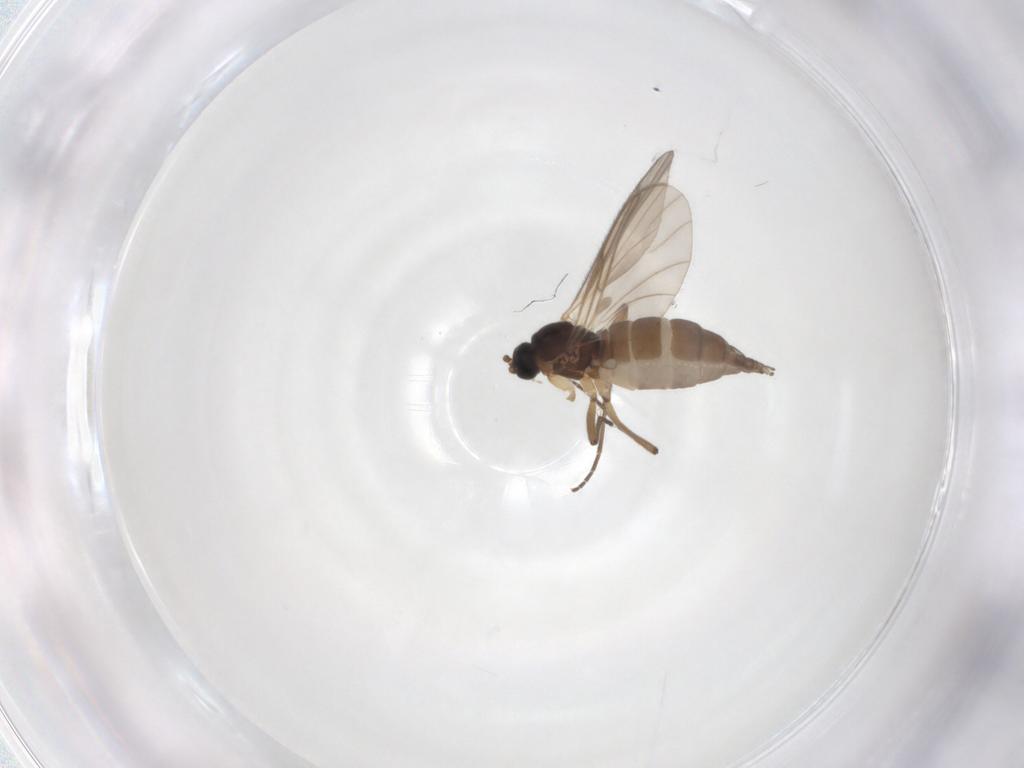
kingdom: Animalia
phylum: Arthropoda
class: Insecta
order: Diptera
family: Sciaridae
